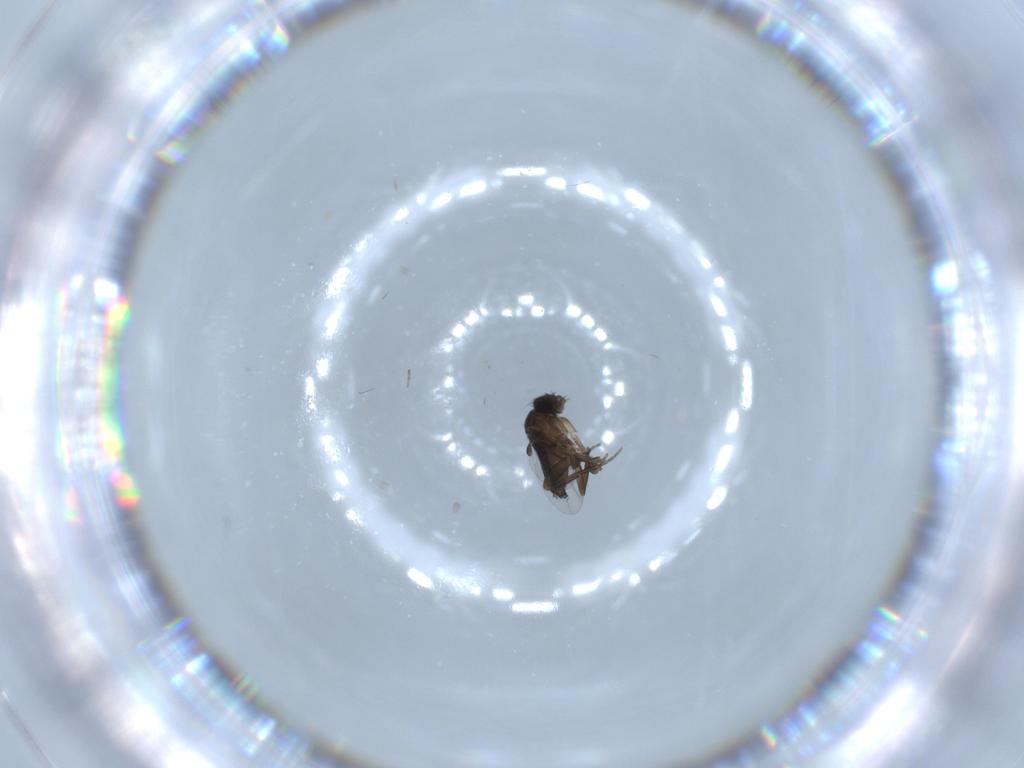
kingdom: Animalia
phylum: Arthropoda
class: Insecta
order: Diptera
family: Phoridae
